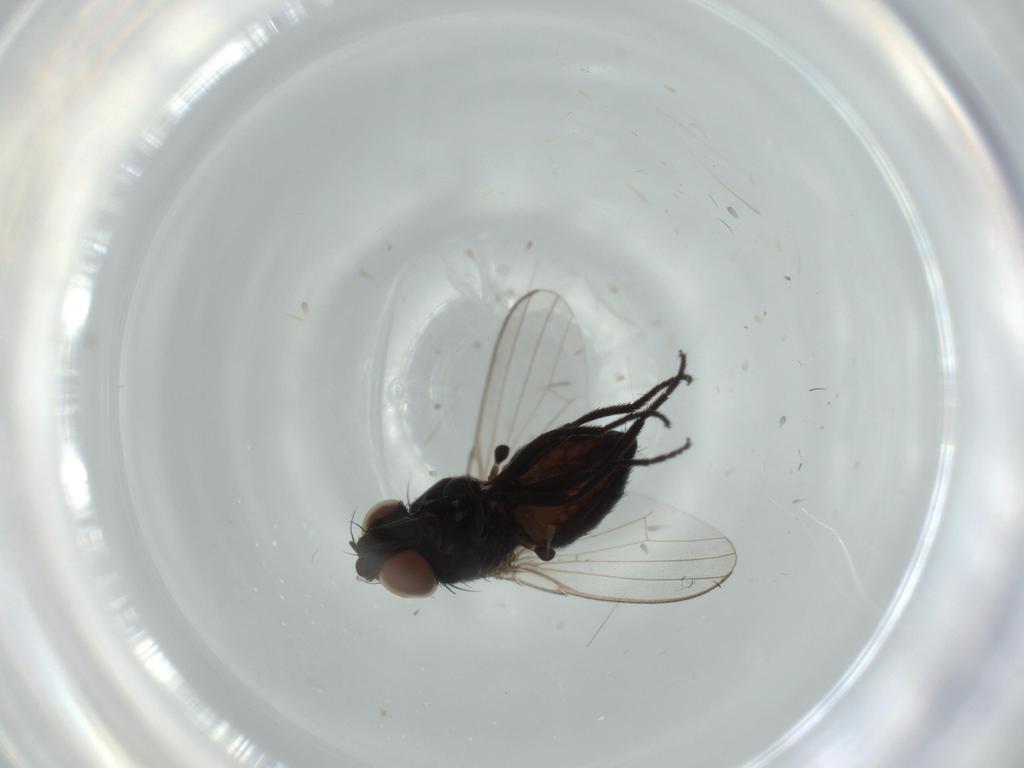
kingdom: Animalia
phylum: Arthropoda
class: Insecta
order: Diptera
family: Milichiidae
